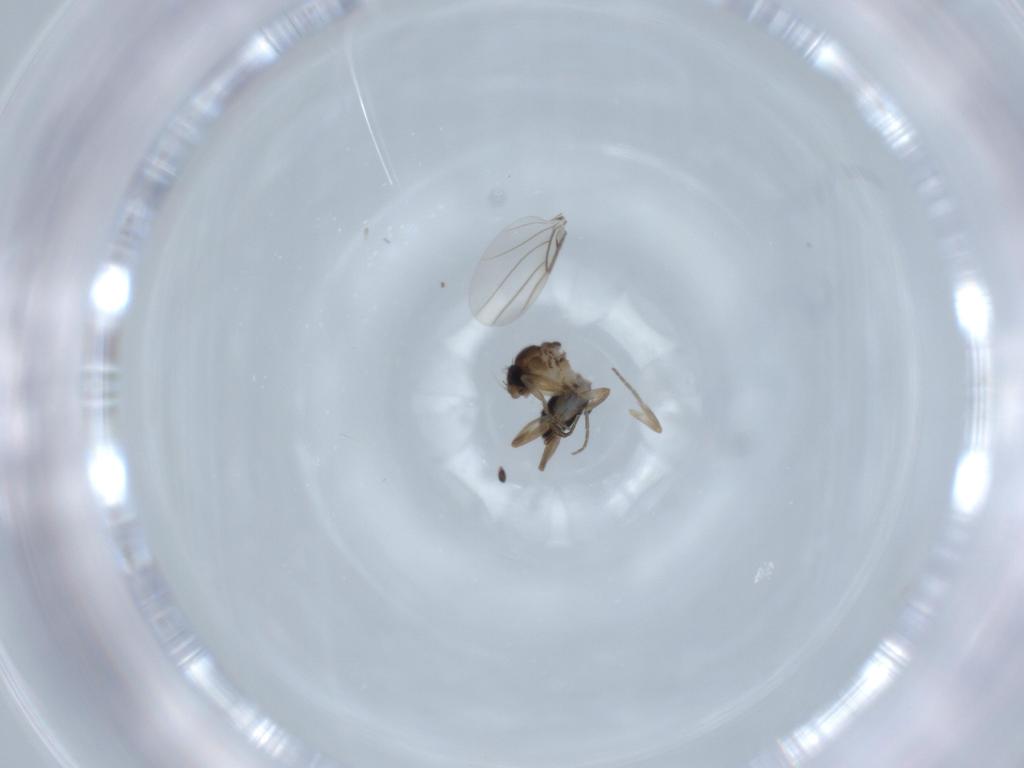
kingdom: Animalia
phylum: Arthropoda
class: Insecta
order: Diptera
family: Phoridae
